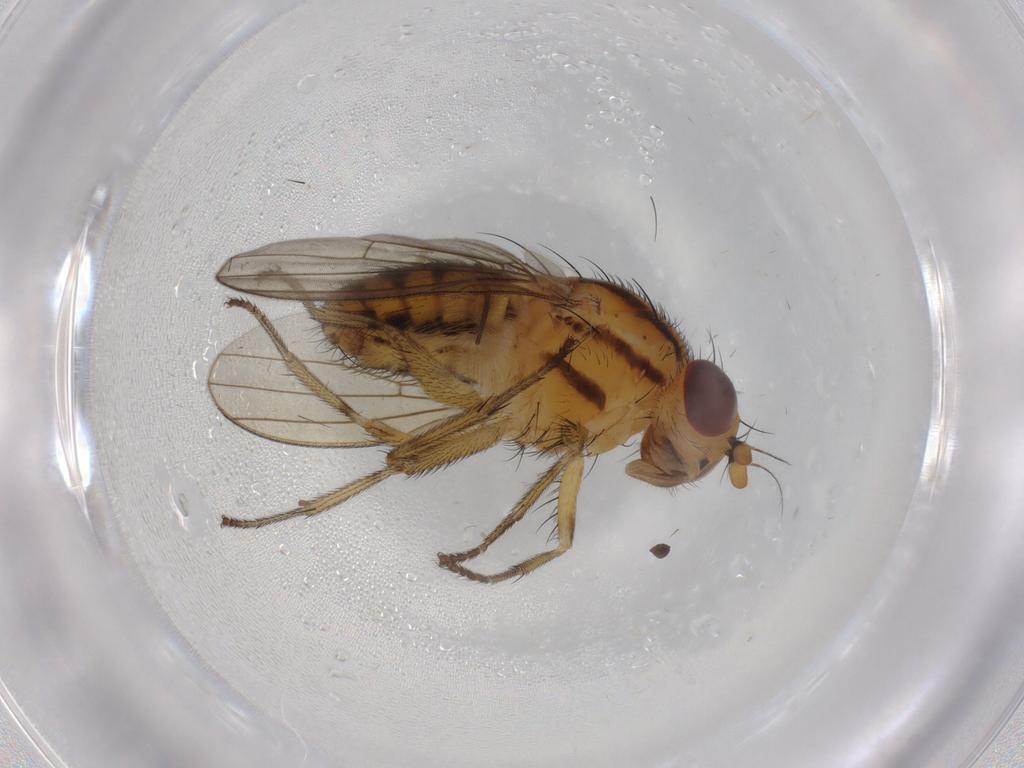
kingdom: Animalia
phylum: Arthropoda
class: Insecta
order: Diptera
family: Psychodidae
